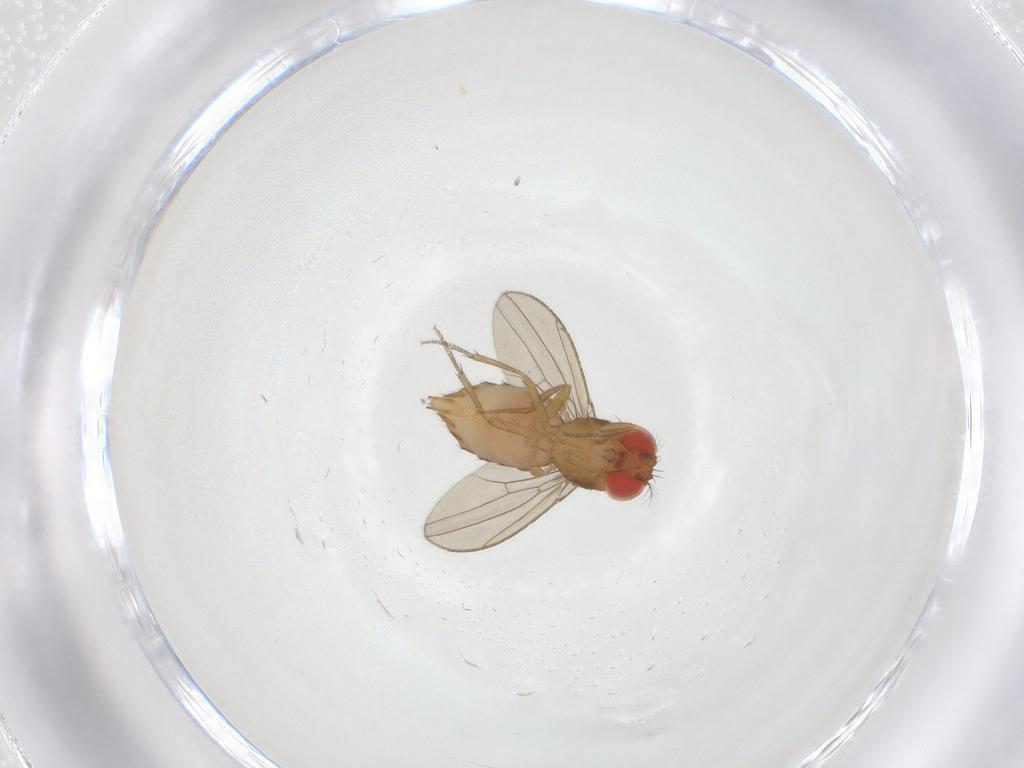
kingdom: Animalia
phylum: Arthropoda
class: Insecta
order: Diptera
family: Drosophilidae
